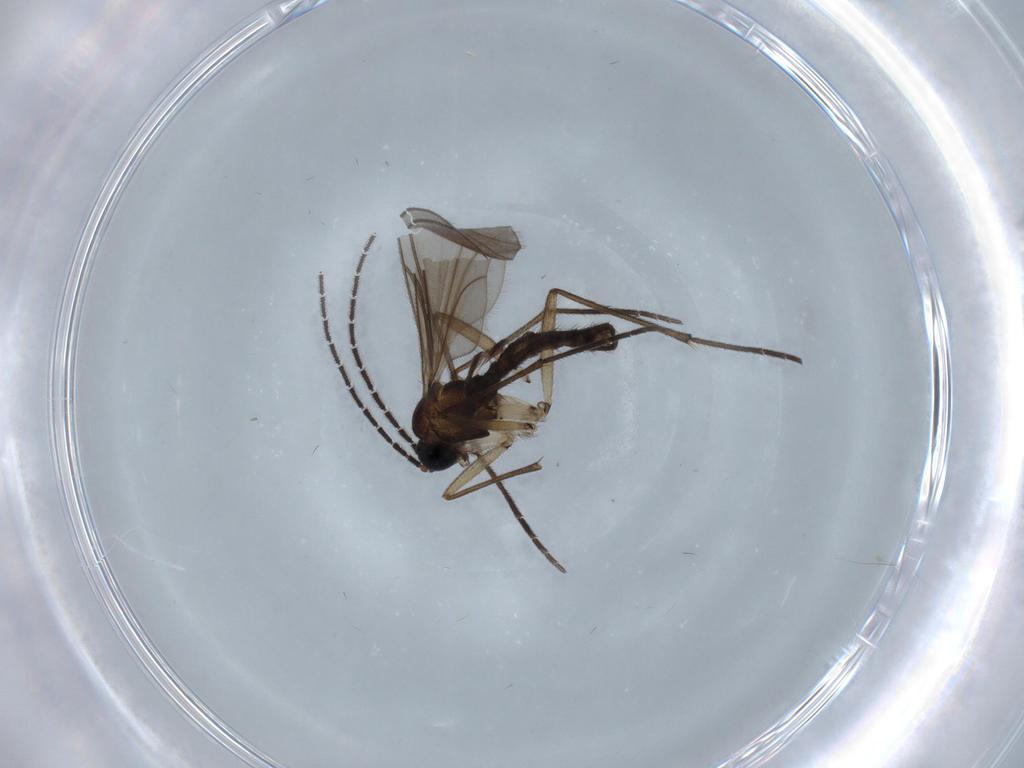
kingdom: Animalia
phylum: Arthropoda
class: Insecta
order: Diptera
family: Sciaridae
